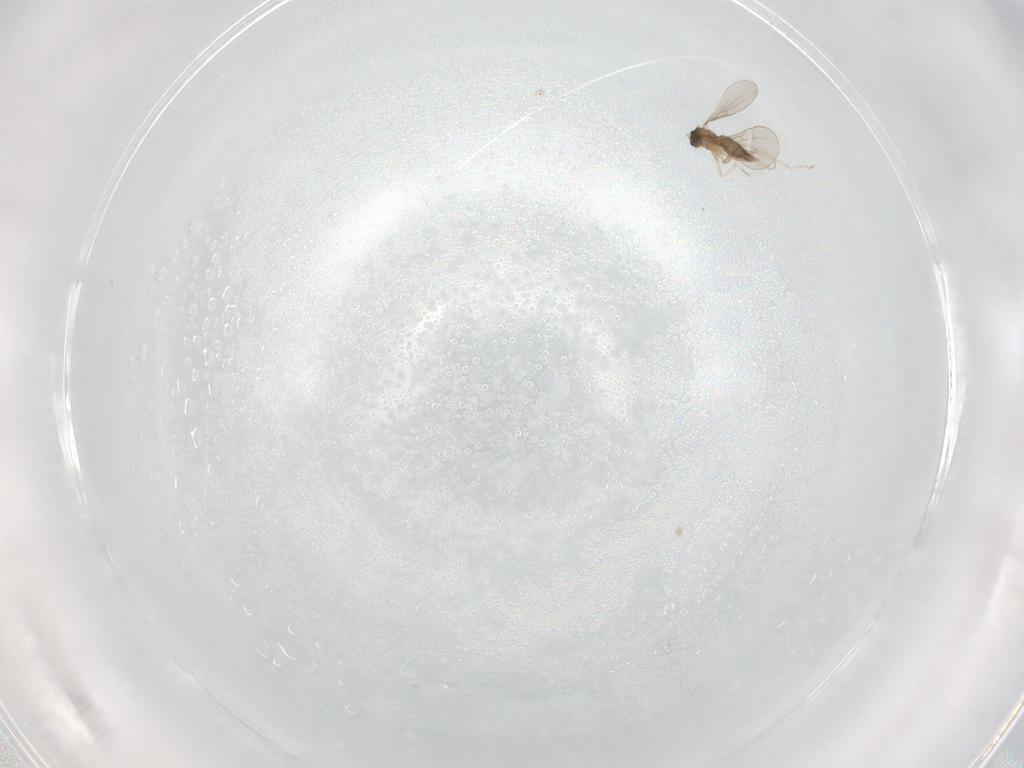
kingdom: Animalia
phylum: Arthropoda
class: Insecta
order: Diptera
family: Cecidomyiidae
